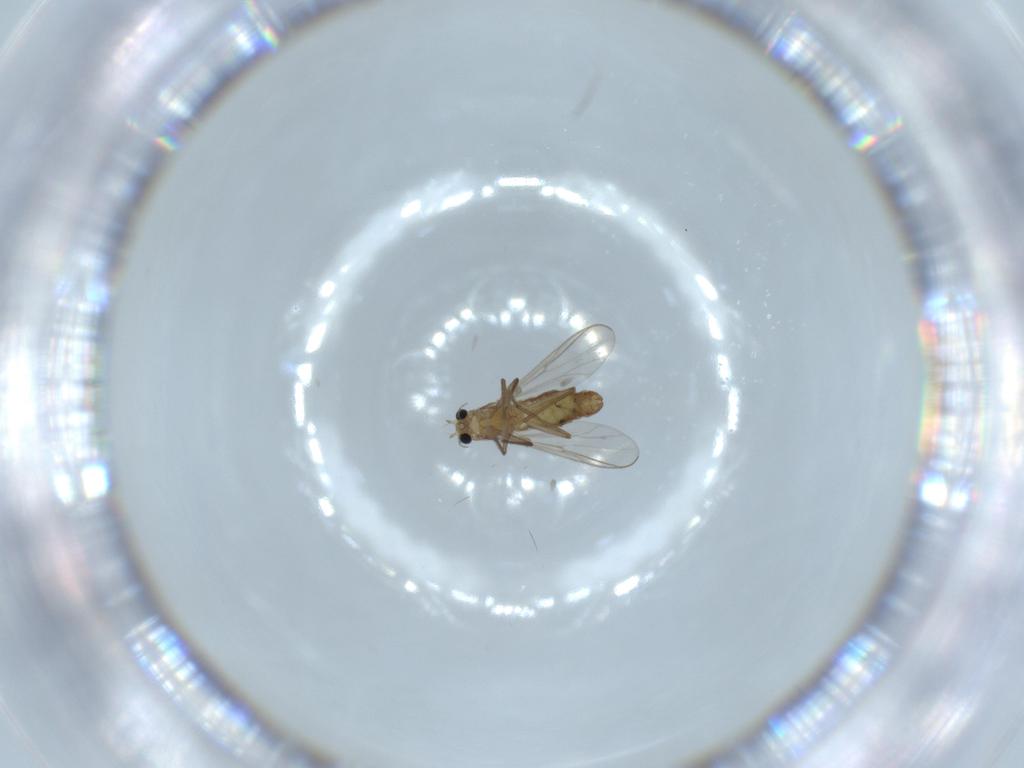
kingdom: Animalia
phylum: Arthropoda
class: Insecta
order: Diptera
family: Chironomidae
